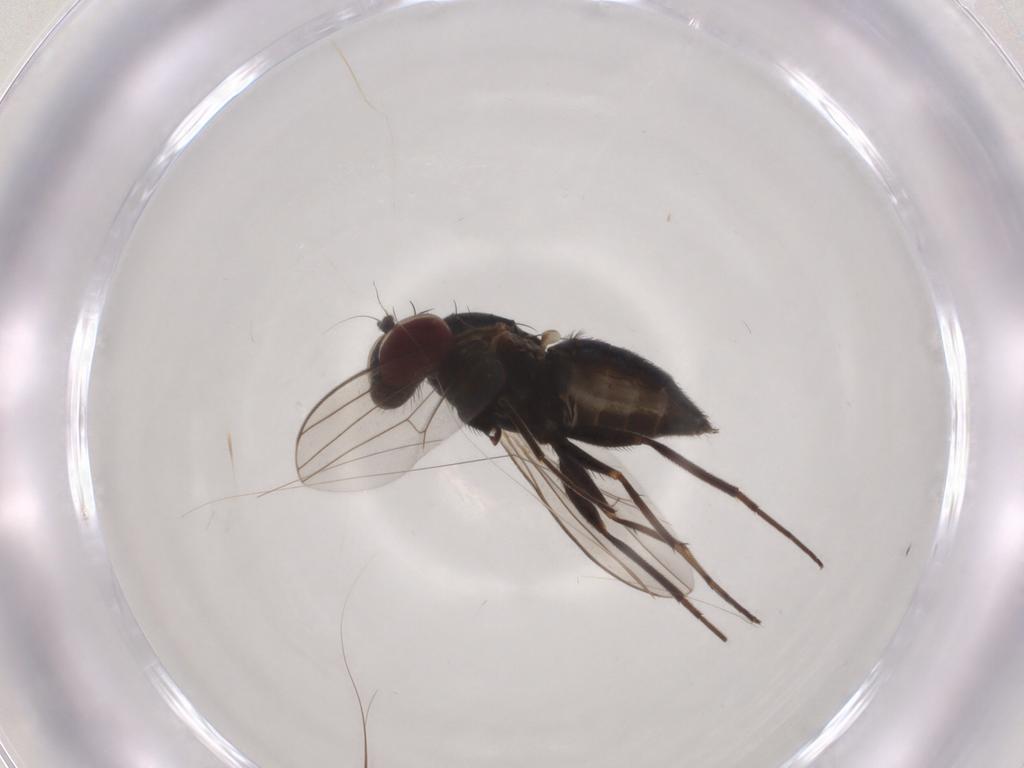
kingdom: Animalia
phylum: Arthropoda
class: Insecta
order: Diptera
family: Dolichopodidae
